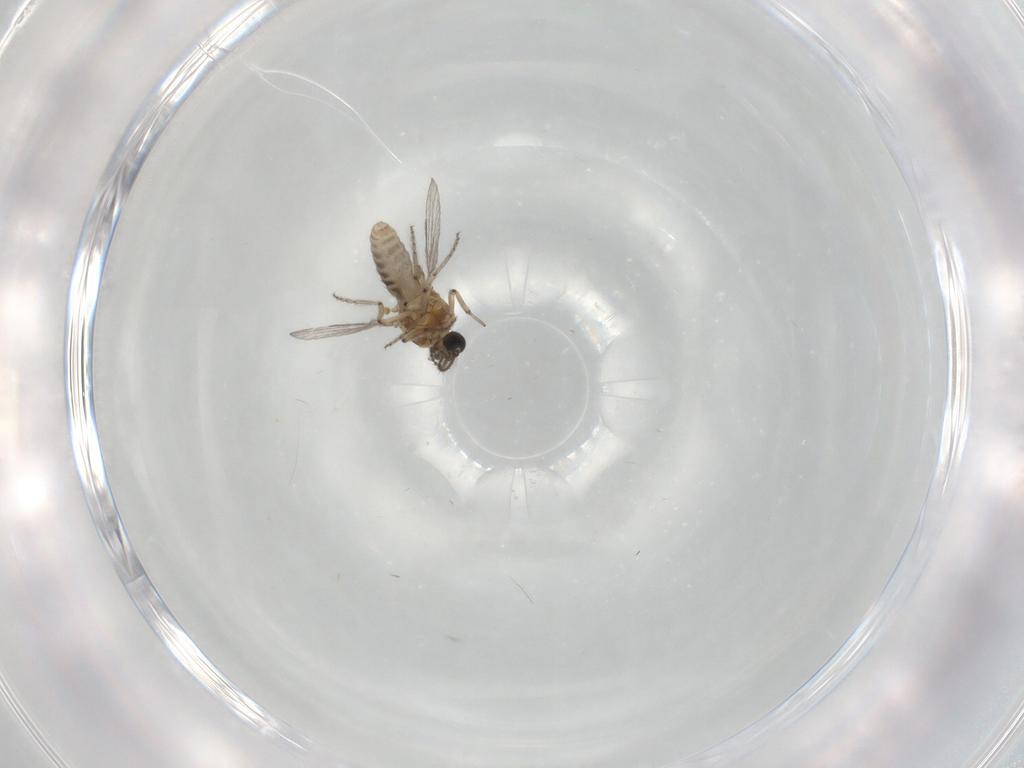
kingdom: Animalia
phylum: Arthropoda
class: Insecta
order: Diptera
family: Ceratopogonidae
